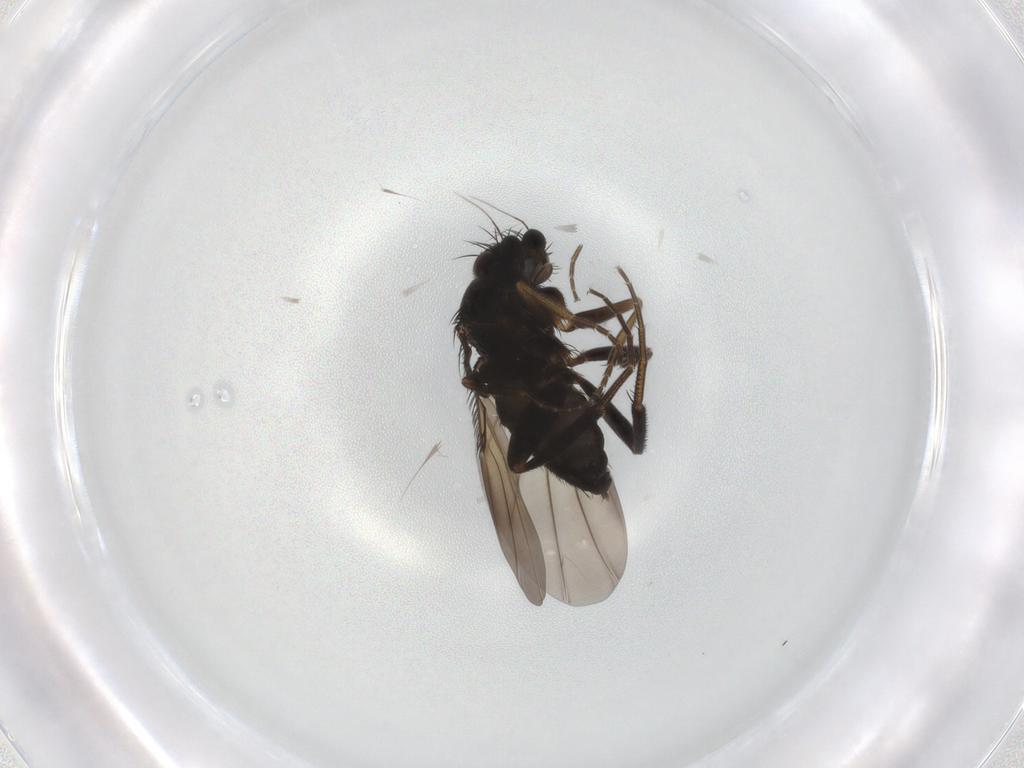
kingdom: Animalia
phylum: Arthropoda
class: Insecta
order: Diptera
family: Phoridae
